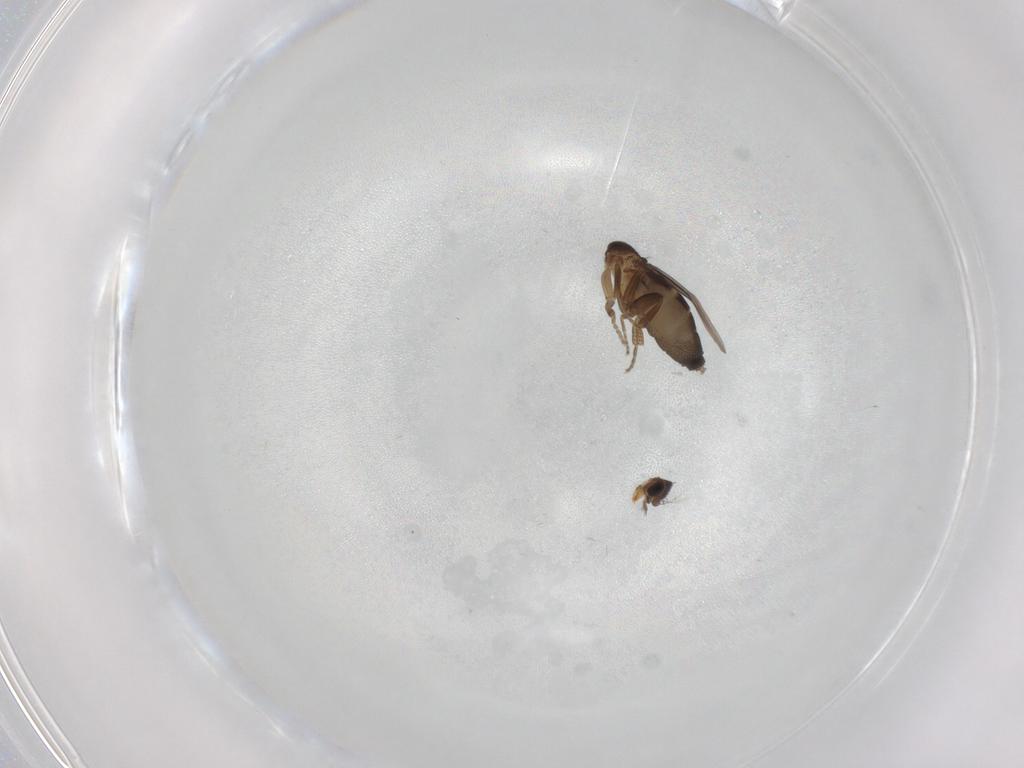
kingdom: Animalia
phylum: Arthropoda
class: Insecta
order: Diptera
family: Phoridae
